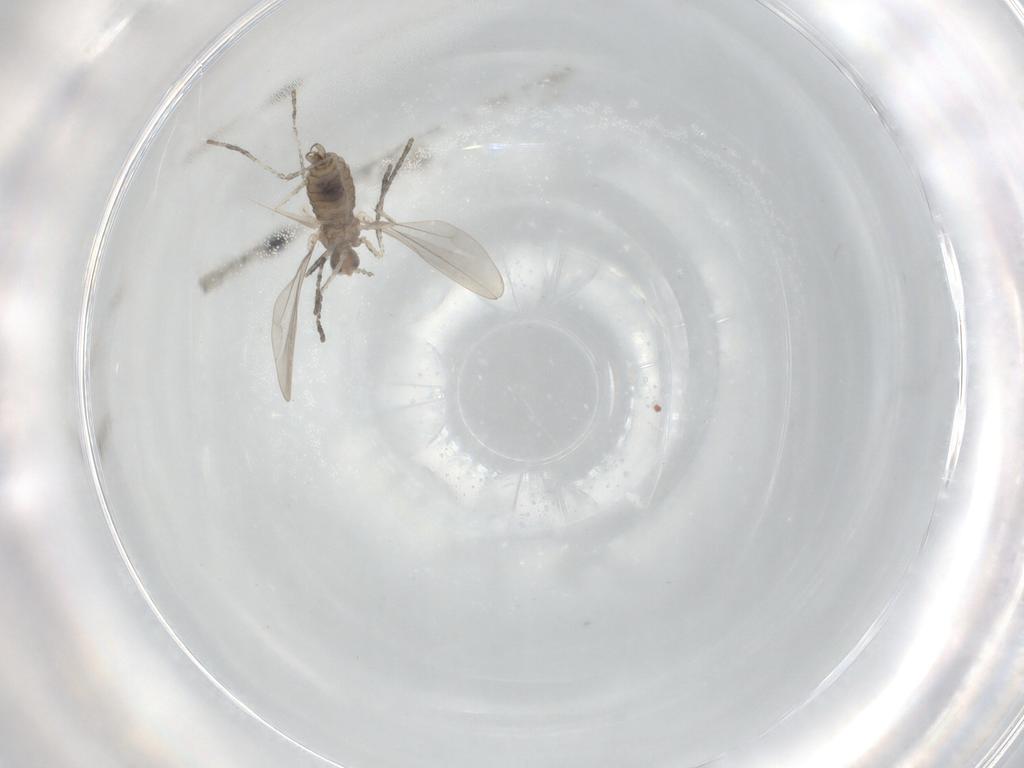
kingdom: Animalia
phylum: Arthropoda
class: Insecta
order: Diptera
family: Cecidomyiidae
